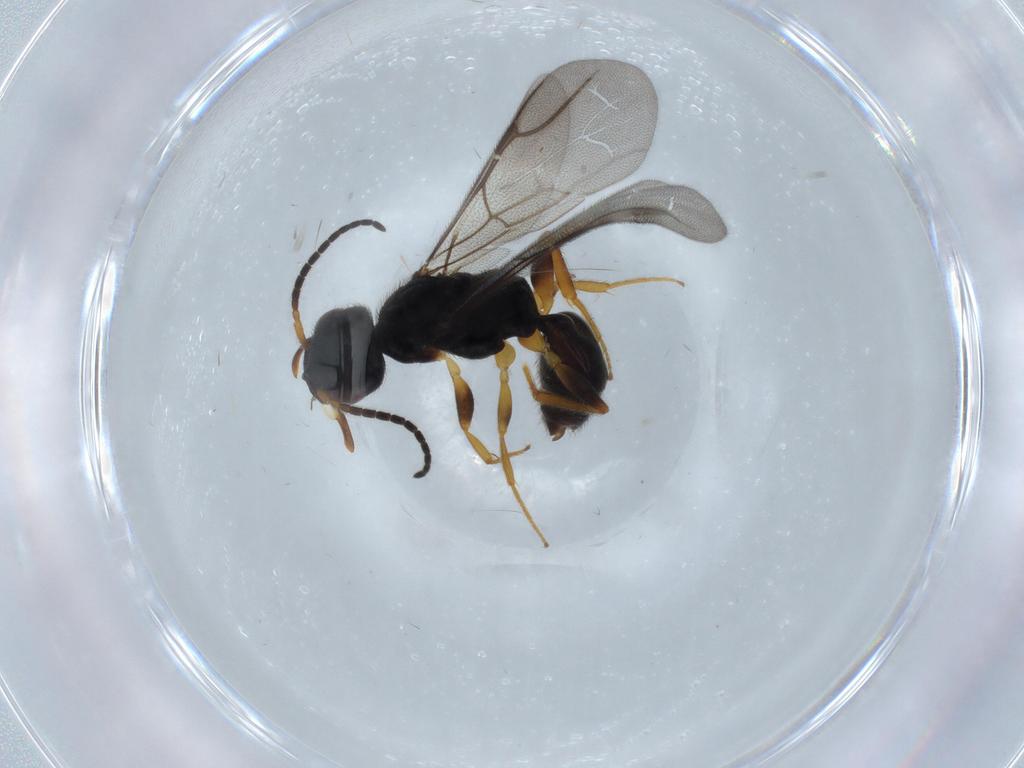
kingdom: Animalia
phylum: Arthropoda
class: Insecta
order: Hymenoptera
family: Bethylidae
